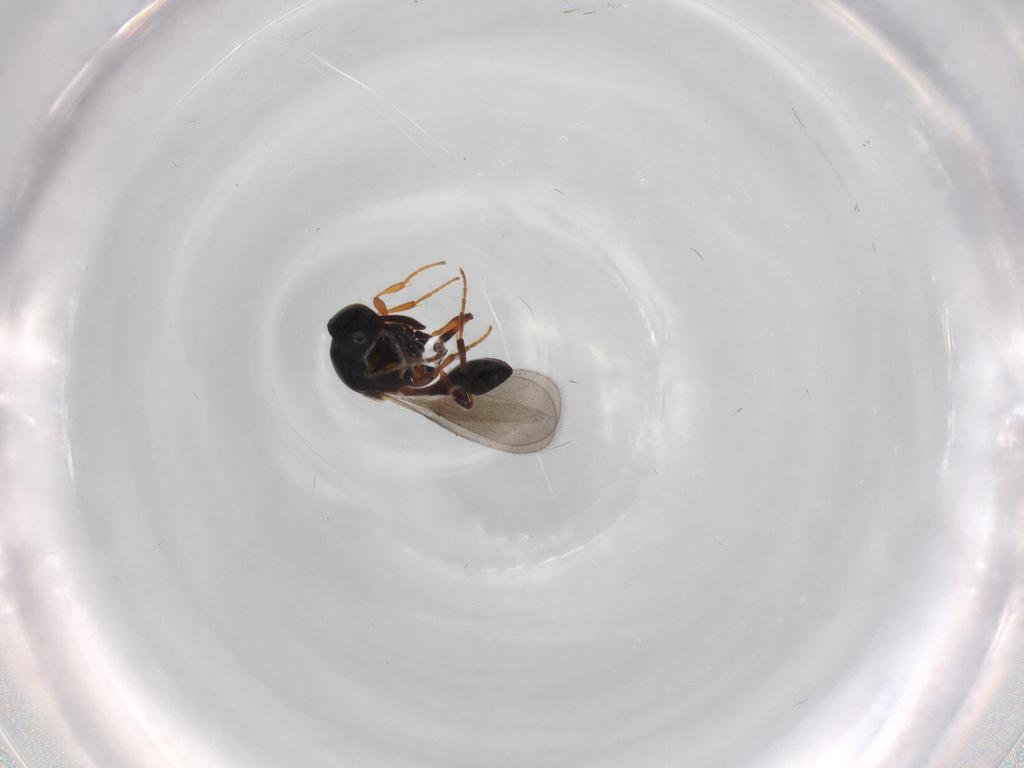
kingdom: Animalia
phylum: Arthropoda
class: Insecta
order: Hymenoptera
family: Platygastridae
